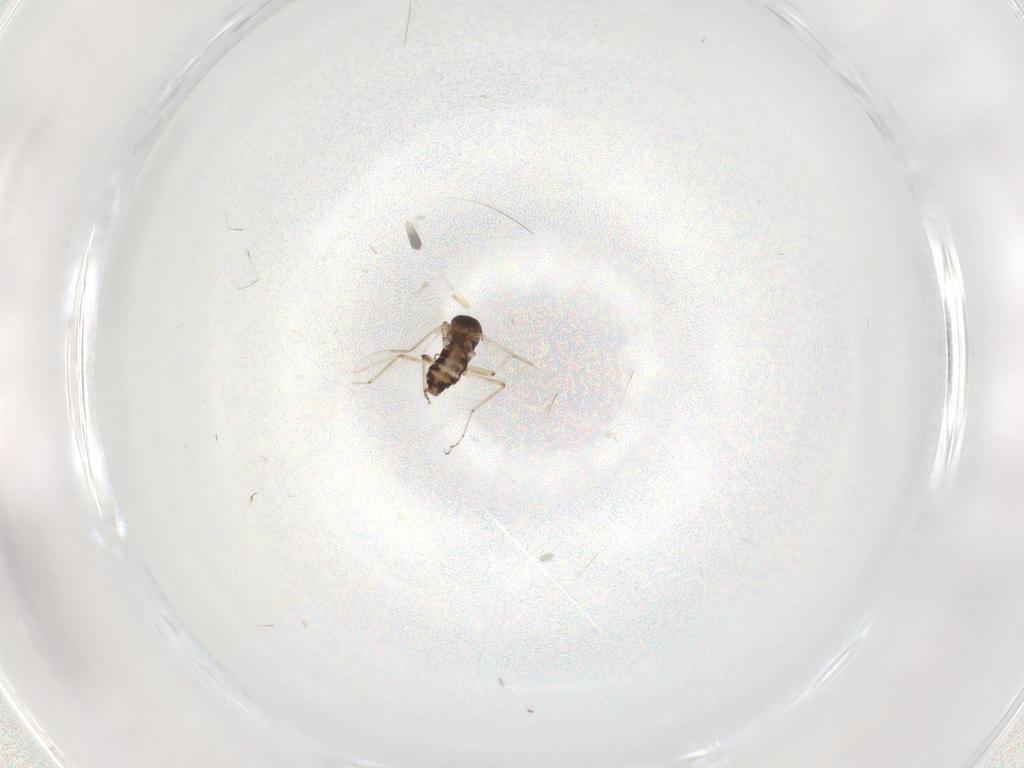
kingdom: Animalia
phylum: Arthropoda
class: Insecta
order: Diptera
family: Ceratopogonidae
